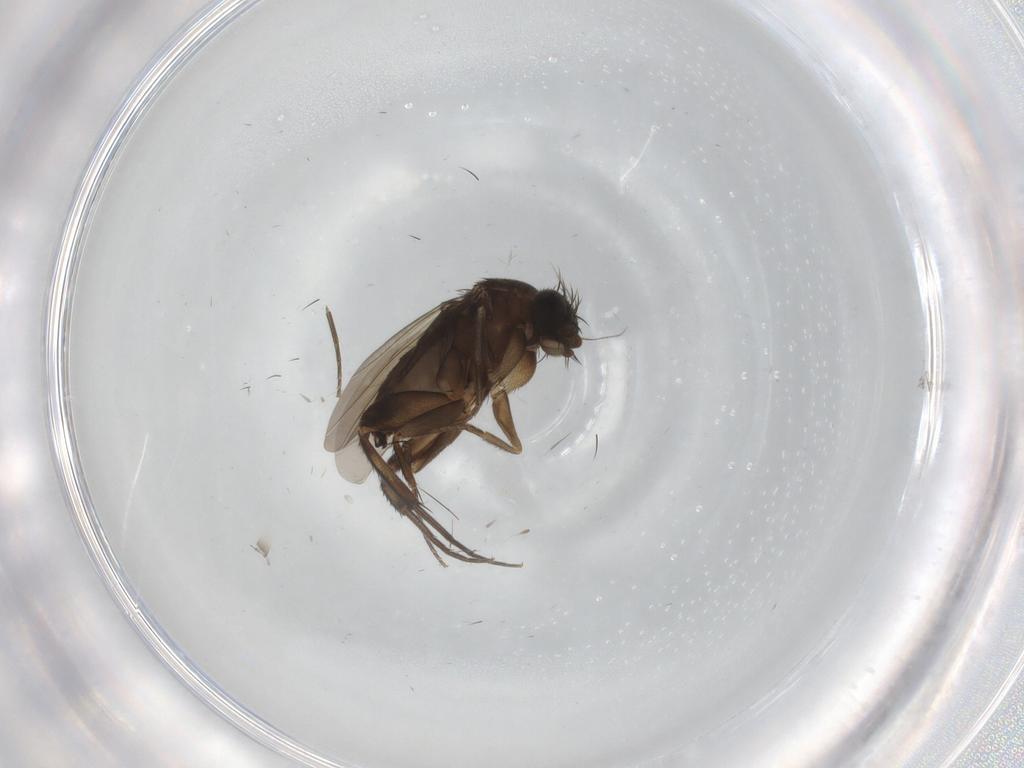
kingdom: Animalia
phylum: Arthropoda
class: Insecta
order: Diptera
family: Phoridae
